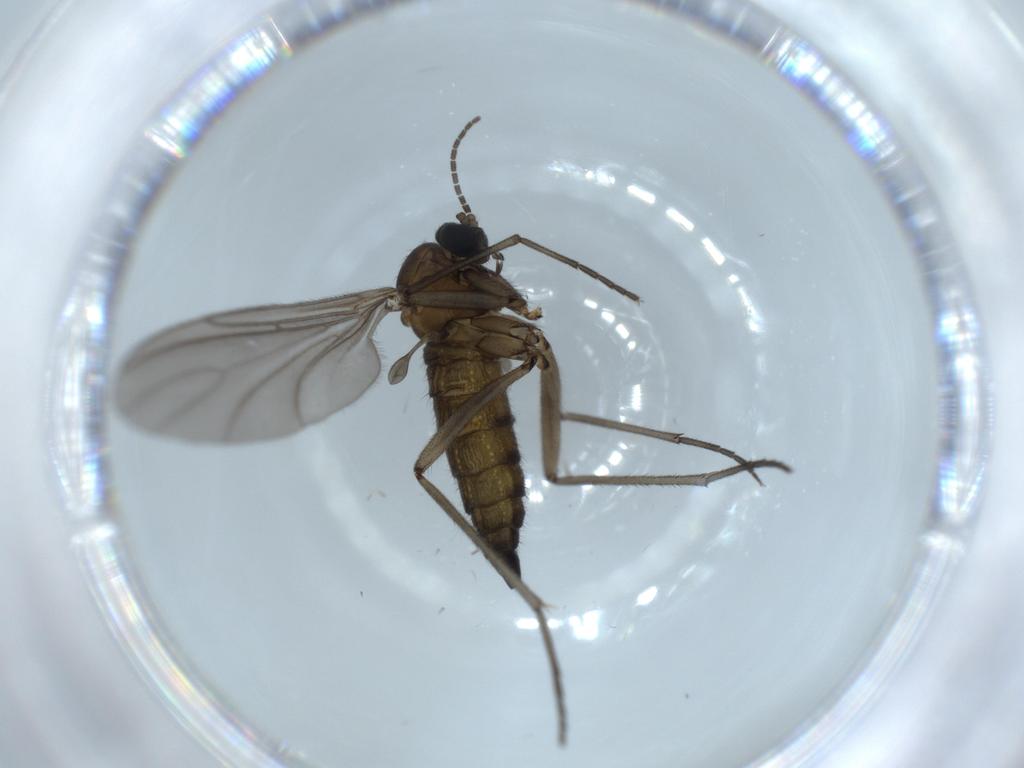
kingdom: Animalia
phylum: Arthropoda
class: Insecta
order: Diptera
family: Sciaridae
